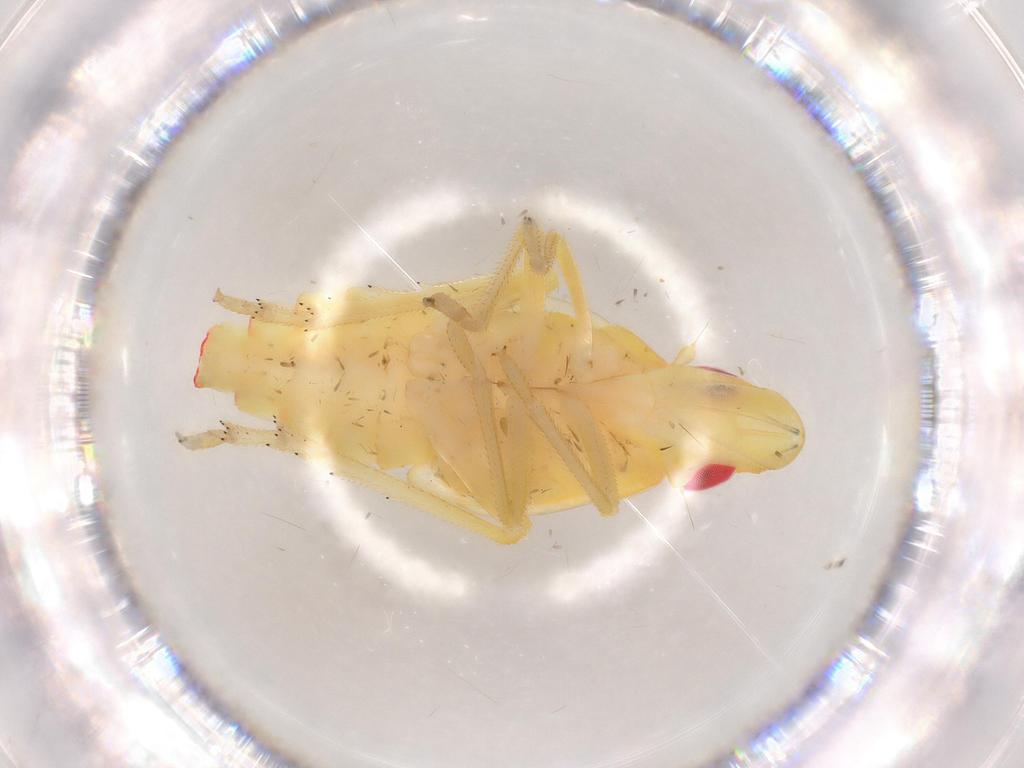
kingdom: Animalia
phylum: Arthropoda
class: Insecta
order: Hemiptera
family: Tropiduchidae
